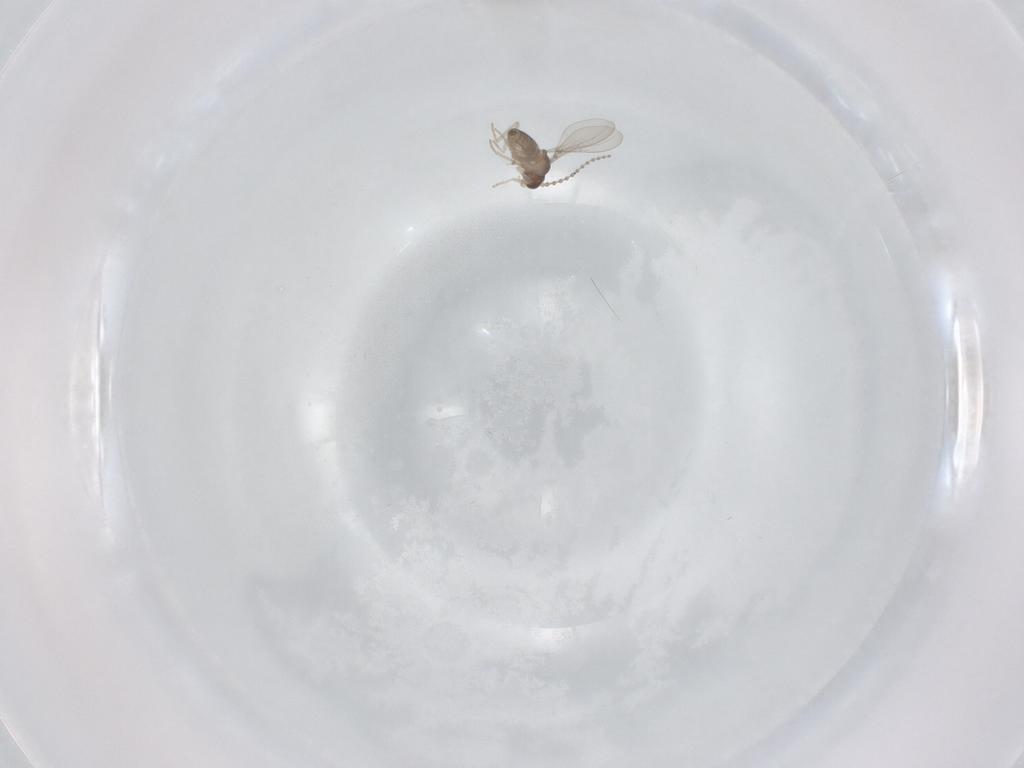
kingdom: Animalia
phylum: Arthropoda
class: Insecta
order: Diptera
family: Cecidomyiidae
